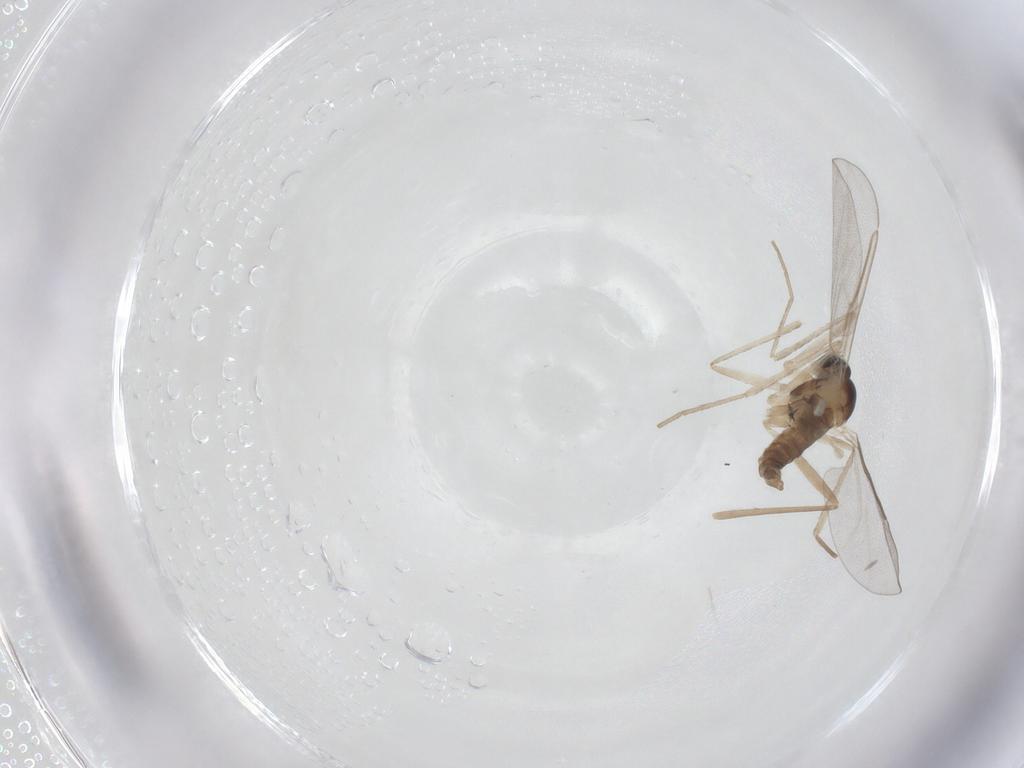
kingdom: Animalia
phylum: Arthropoda
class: Insecta
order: Diptera
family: Cecidomyiidae
